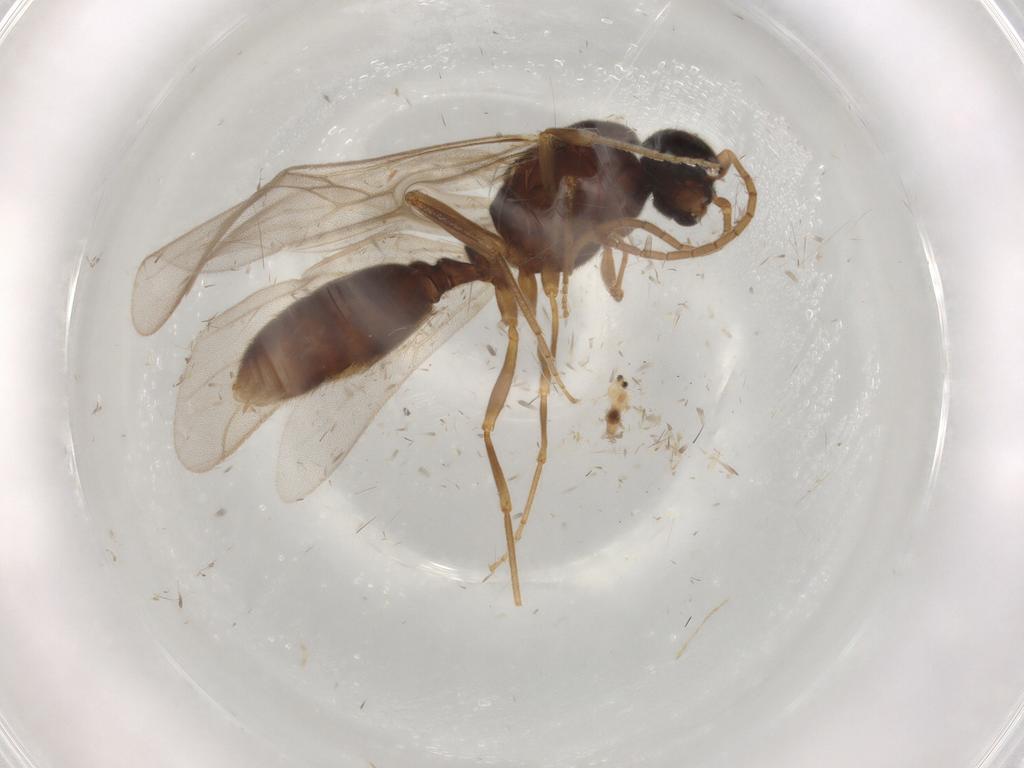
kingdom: Animalia
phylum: Arthropoda
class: Insecta
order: Hymenoptera
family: Formicidae
